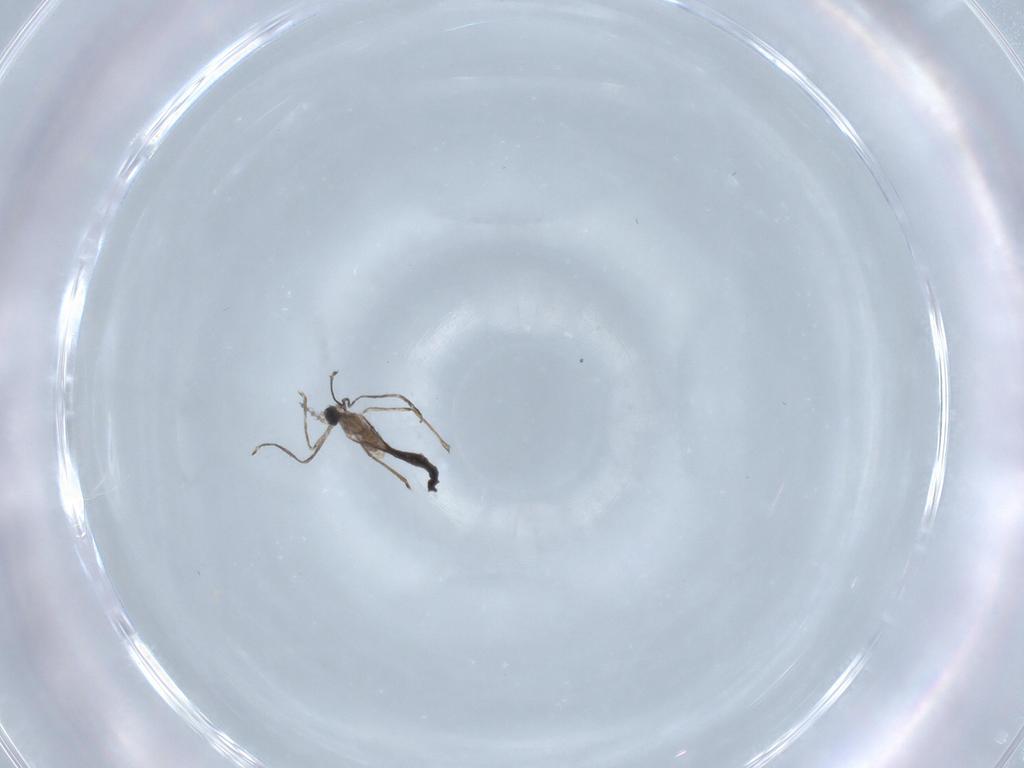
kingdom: Animalia
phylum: Arthropoda
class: Insecta
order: Diptera
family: Cecidomyiidae
